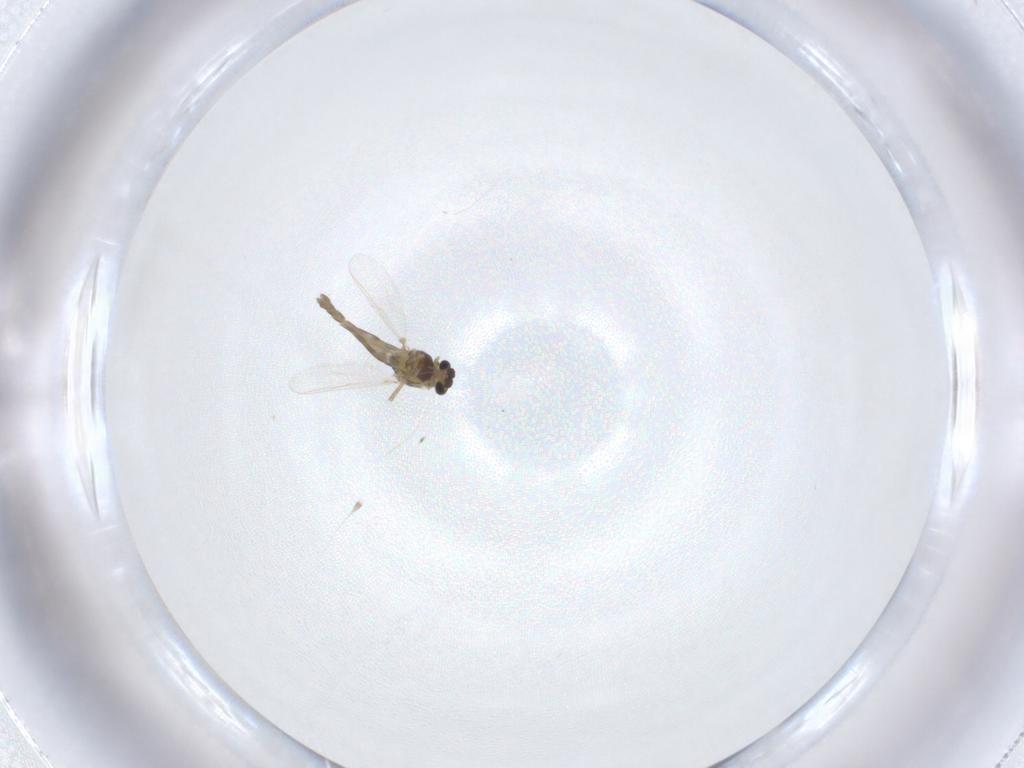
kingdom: Animalia
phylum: Arthropoda
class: Insecta
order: Diptera
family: Chironomidae
